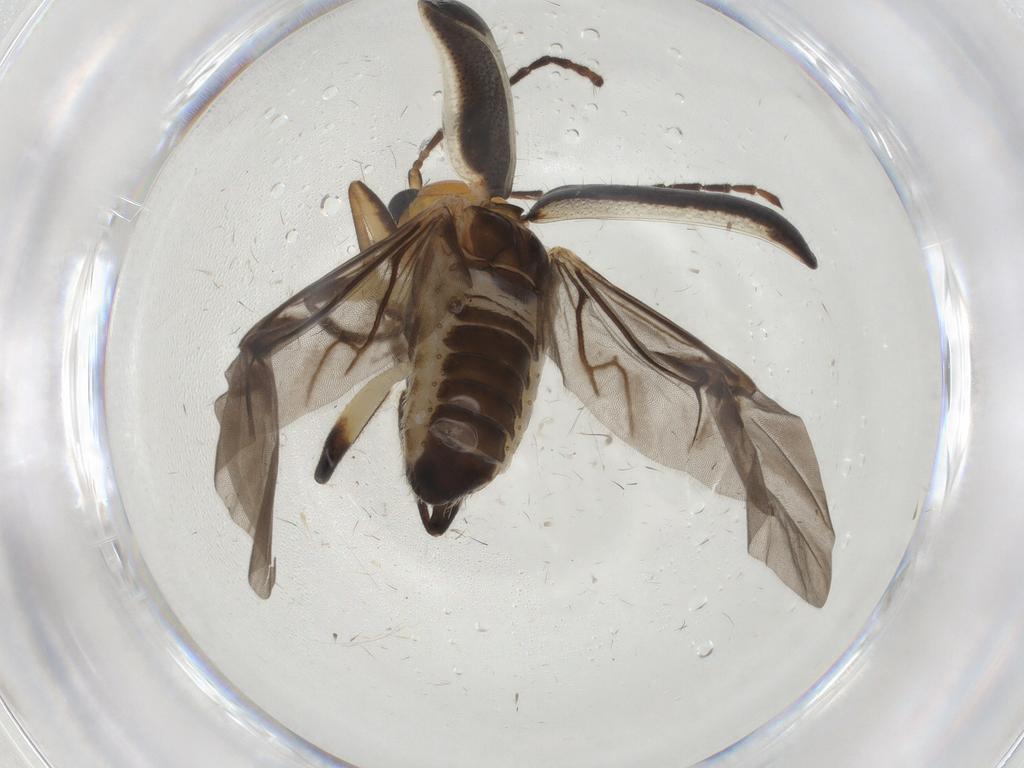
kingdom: Animalia
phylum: Arthropoda
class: Insecta
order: Coleoptera
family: Chrysomelidae
